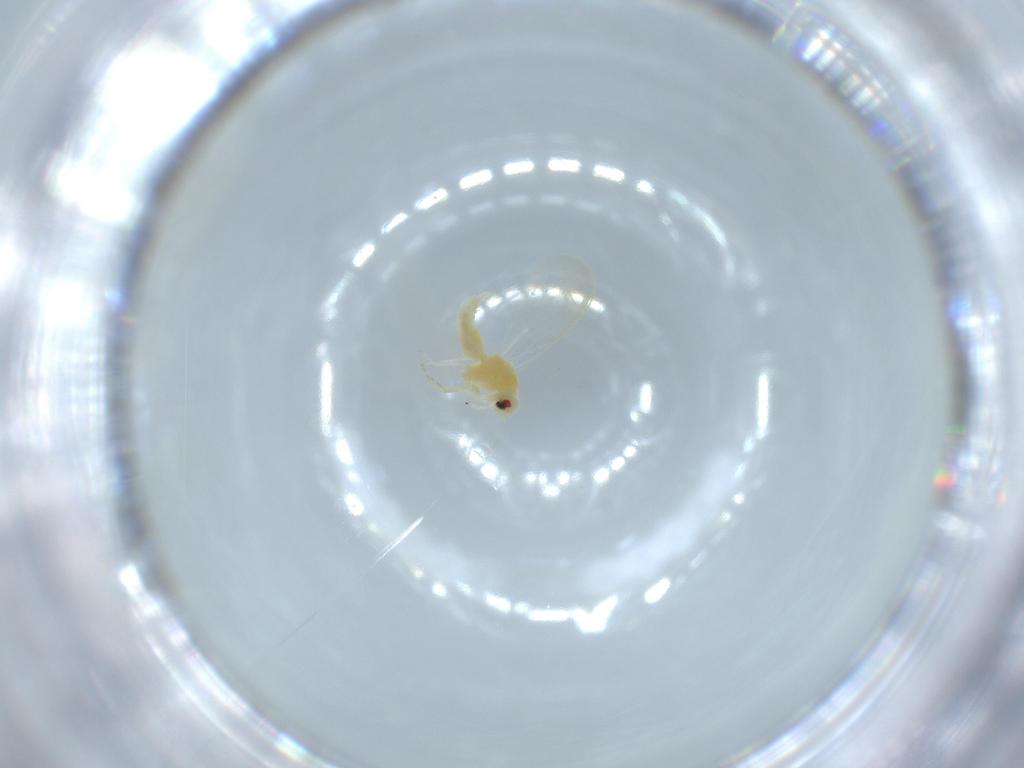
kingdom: Animalia
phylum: Arthropoda
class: Insecta
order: Hemiptera
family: Aleyrodidae
